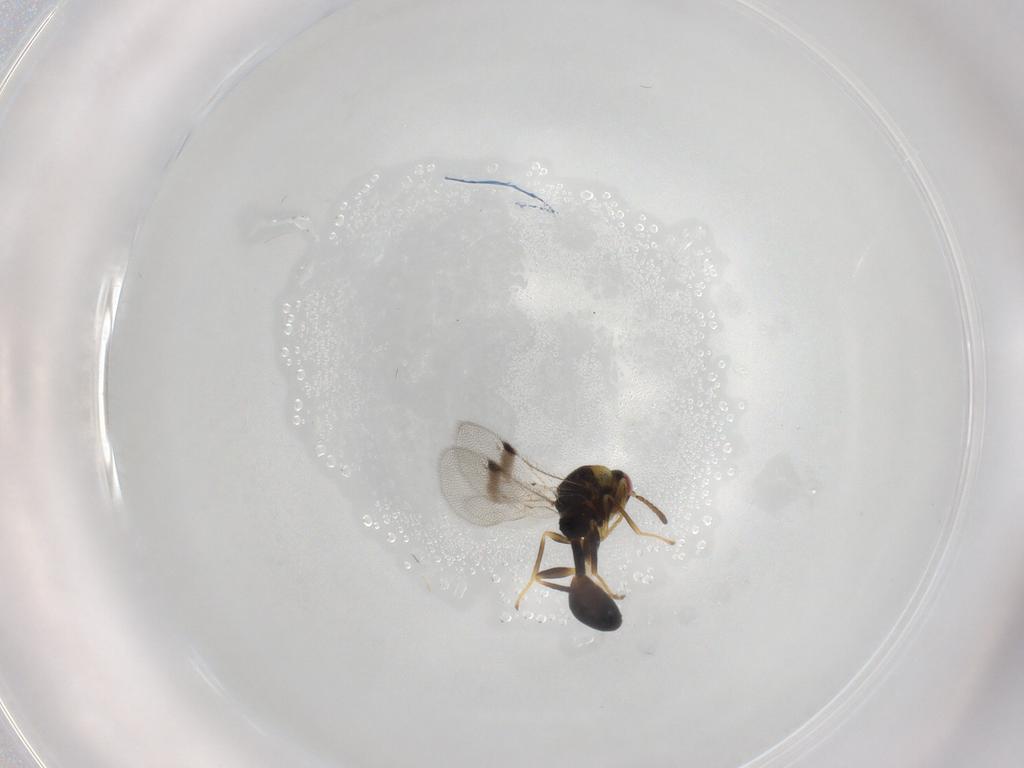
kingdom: Animalia
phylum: Arthropoda
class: Insecta
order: Hymenoptera
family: Eurytomidae
